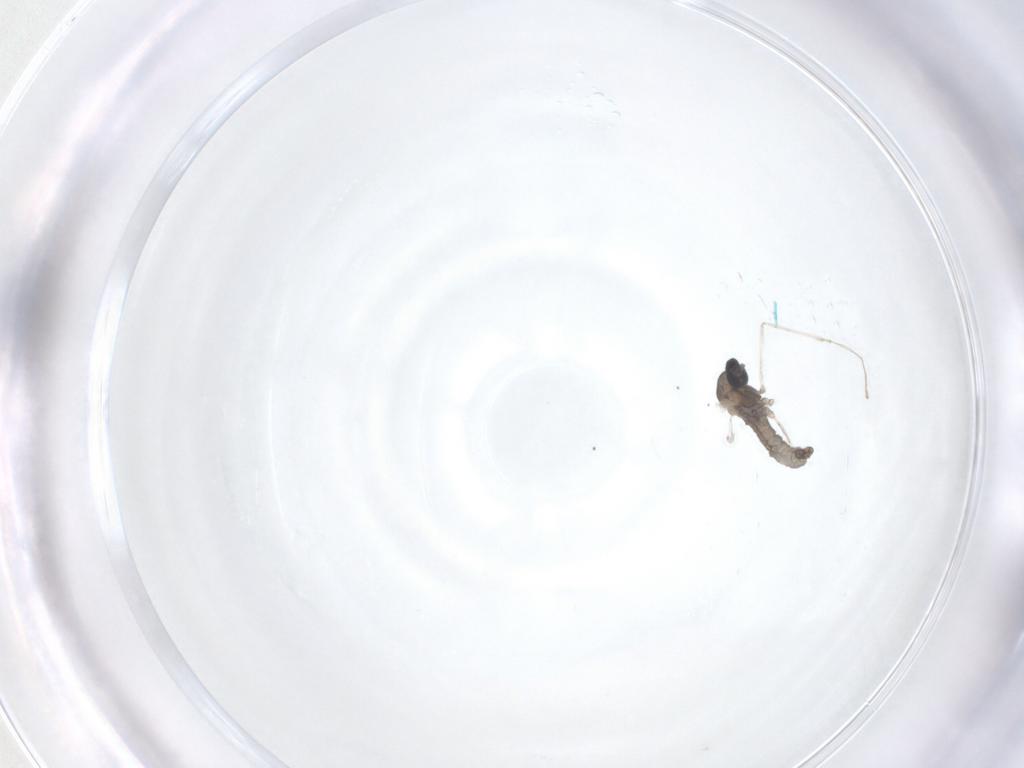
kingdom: Animalia
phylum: Arthropoda
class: Insecta
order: Diptera
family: Cecidomyiidae
